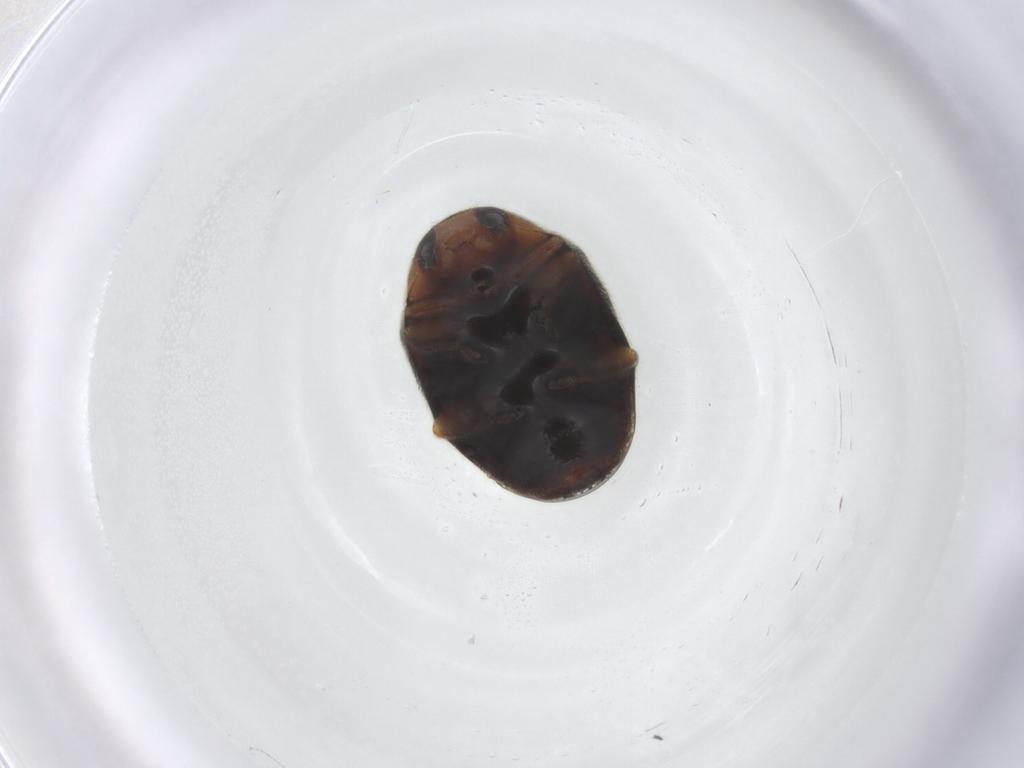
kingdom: Animalia
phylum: Arthropoda
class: Insecta
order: Coleoptera
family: Coccinellidae
